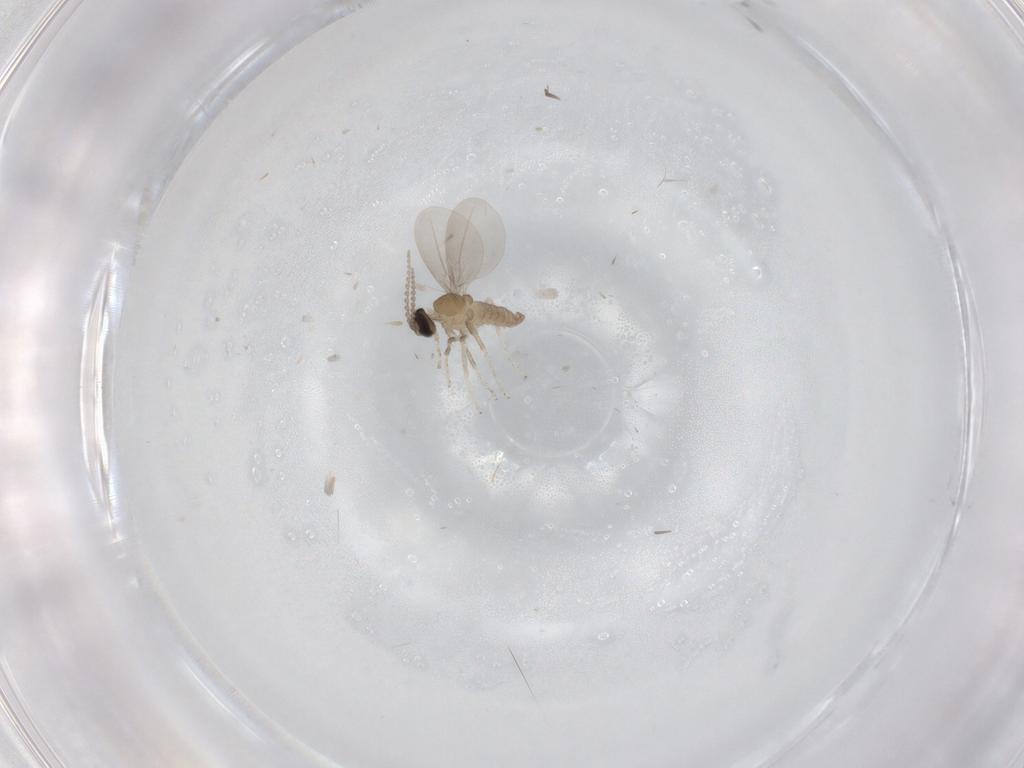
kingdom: Animalia
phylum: Arthropoda
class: Insecta
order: Diptera
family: Cecidomyiidae
